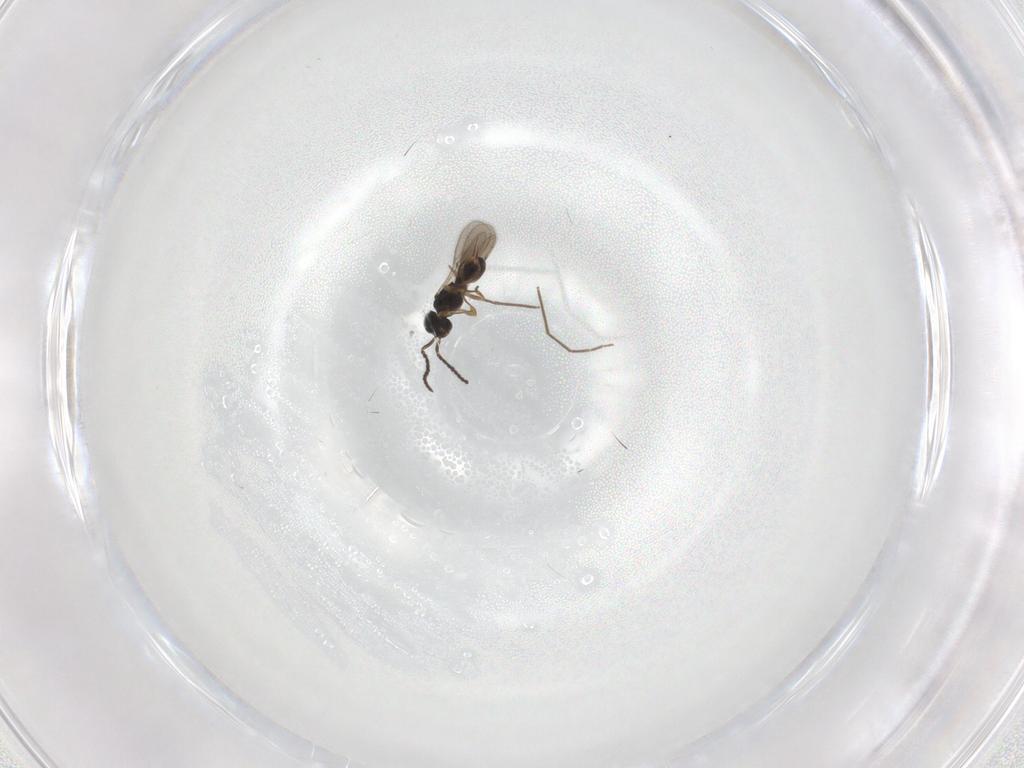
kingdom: Animalia
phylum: Arthropoda
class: Insecta
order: Hymenoptera
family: Scelionidae
